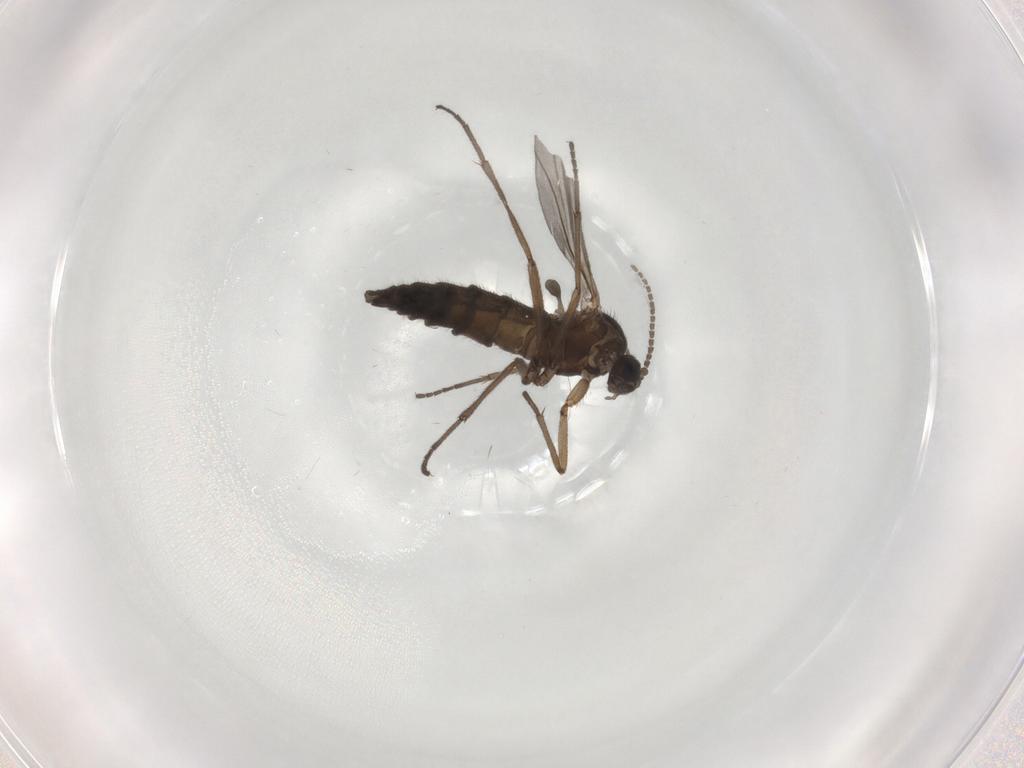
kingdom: Animalia
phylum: Arthropoda
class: Insecta
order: Diptera
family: Sciaridae
